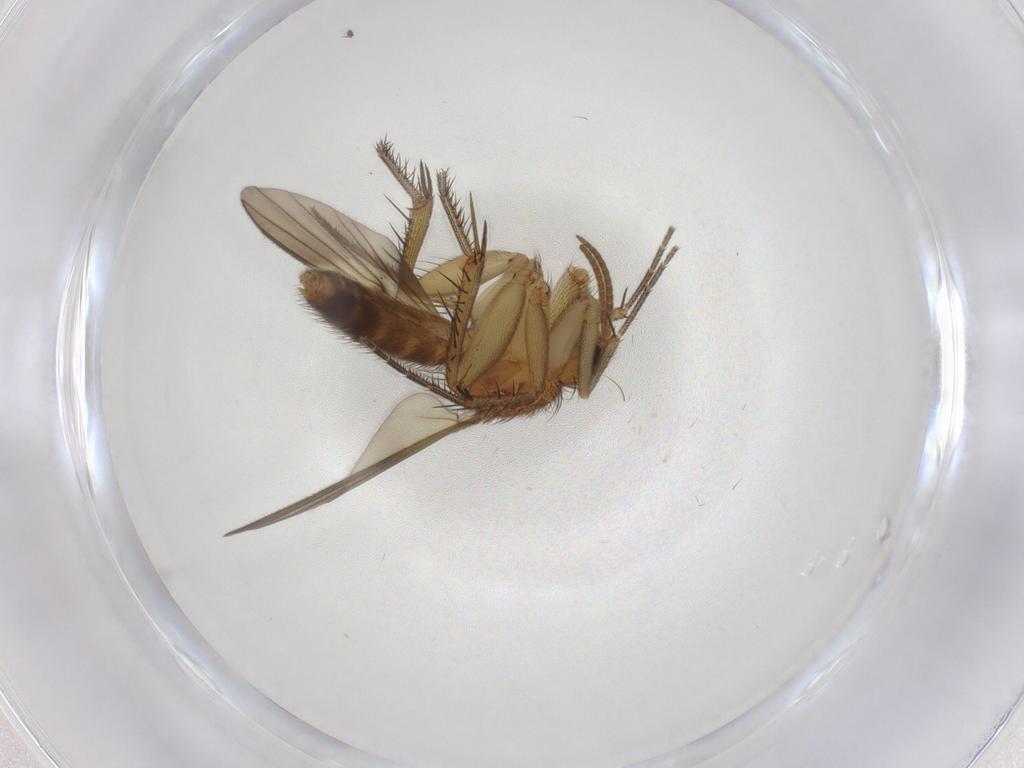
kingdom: Animalia
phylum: Arthropoda
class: Insecta
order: Diptera
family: Mycetophilidae
